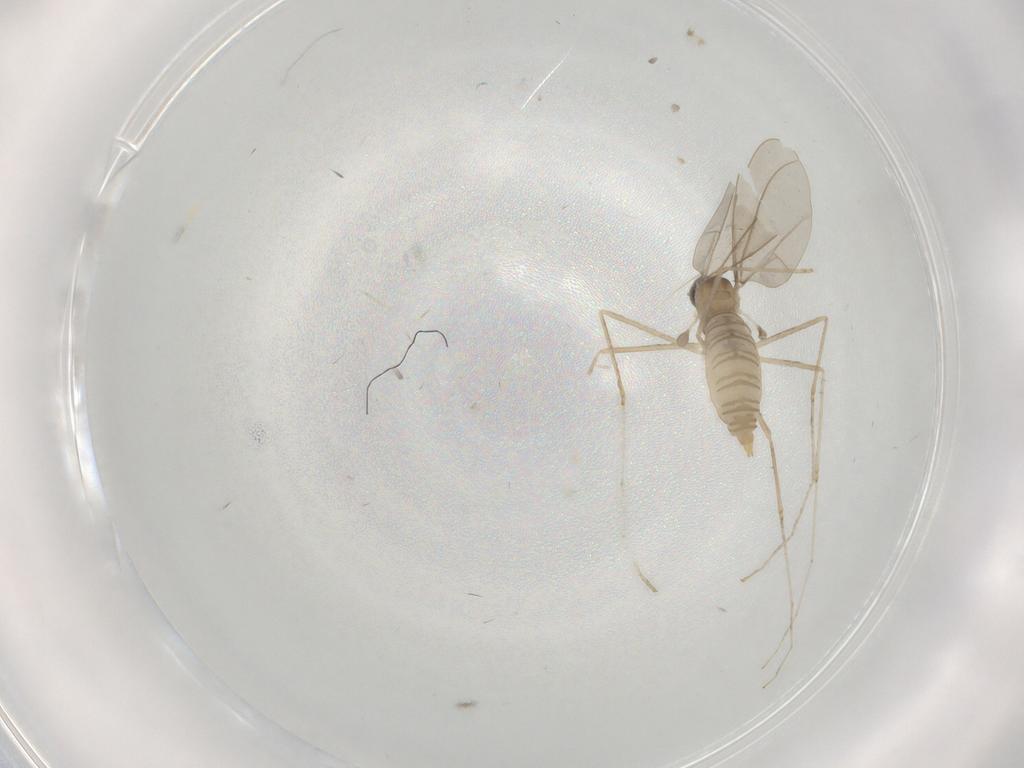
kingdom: Animalia
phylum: Arthropoda
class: Insecta
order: Diptera
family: Cecidomyiidae
